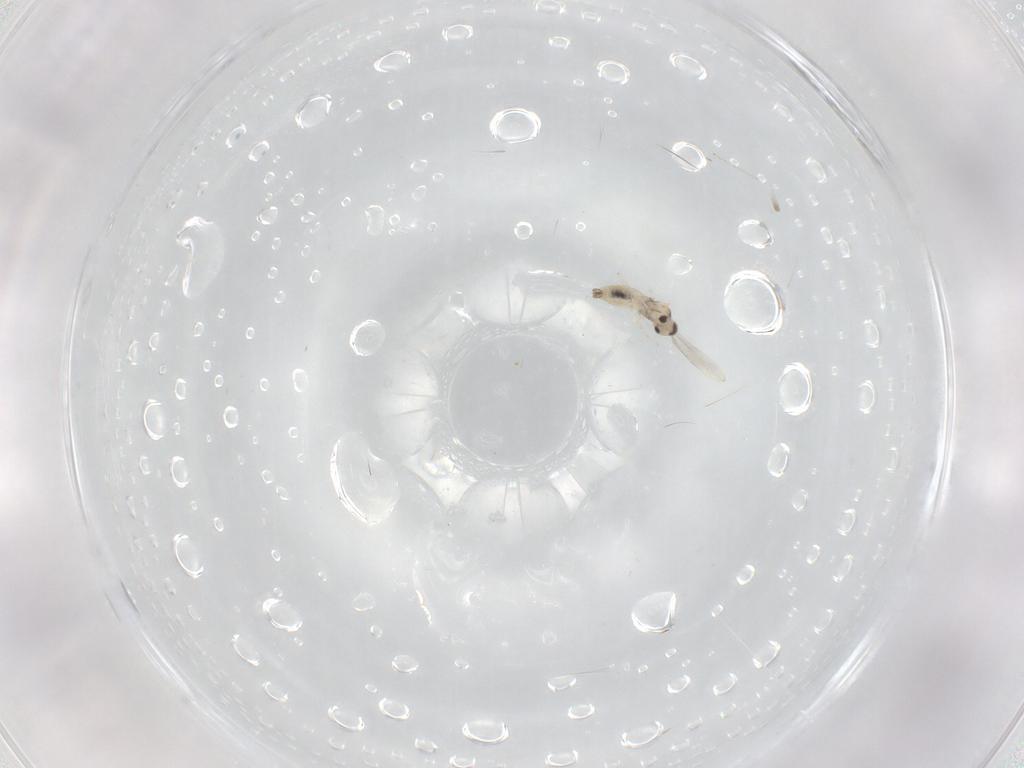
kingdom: Animalia
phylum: Arthropoda
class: Insecta
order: Diptera
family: Cecidomyiidae
